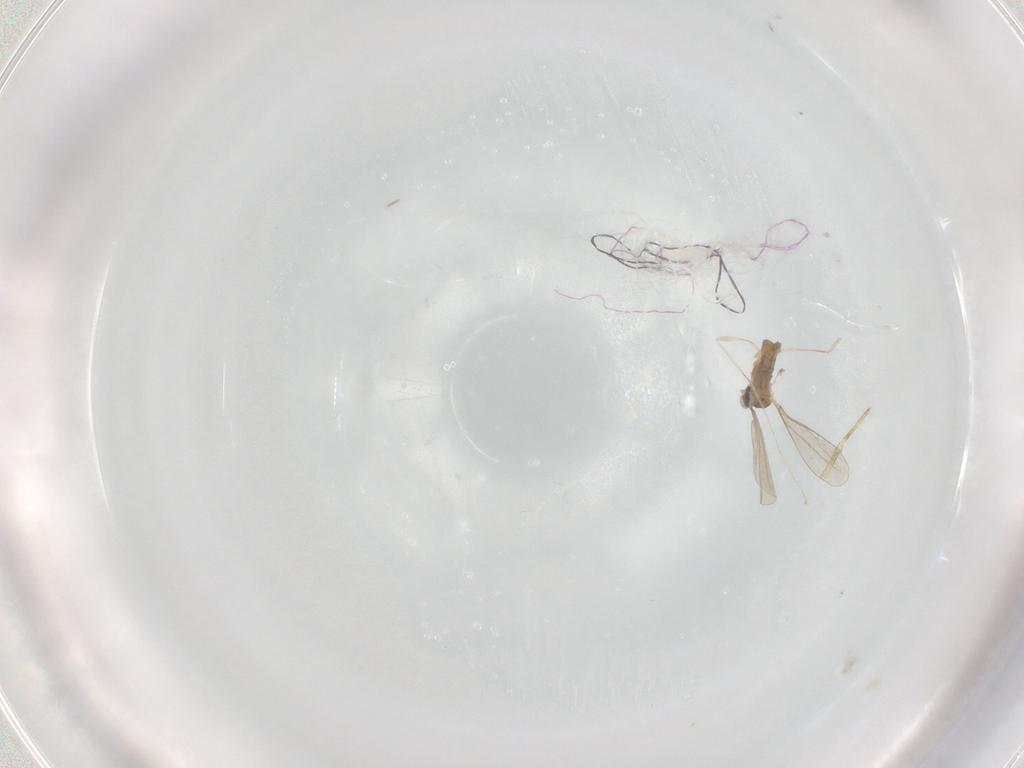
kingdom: Animalia
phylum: Arthropoda
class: Insecta
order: Diptera
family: Cecidomyiidae
